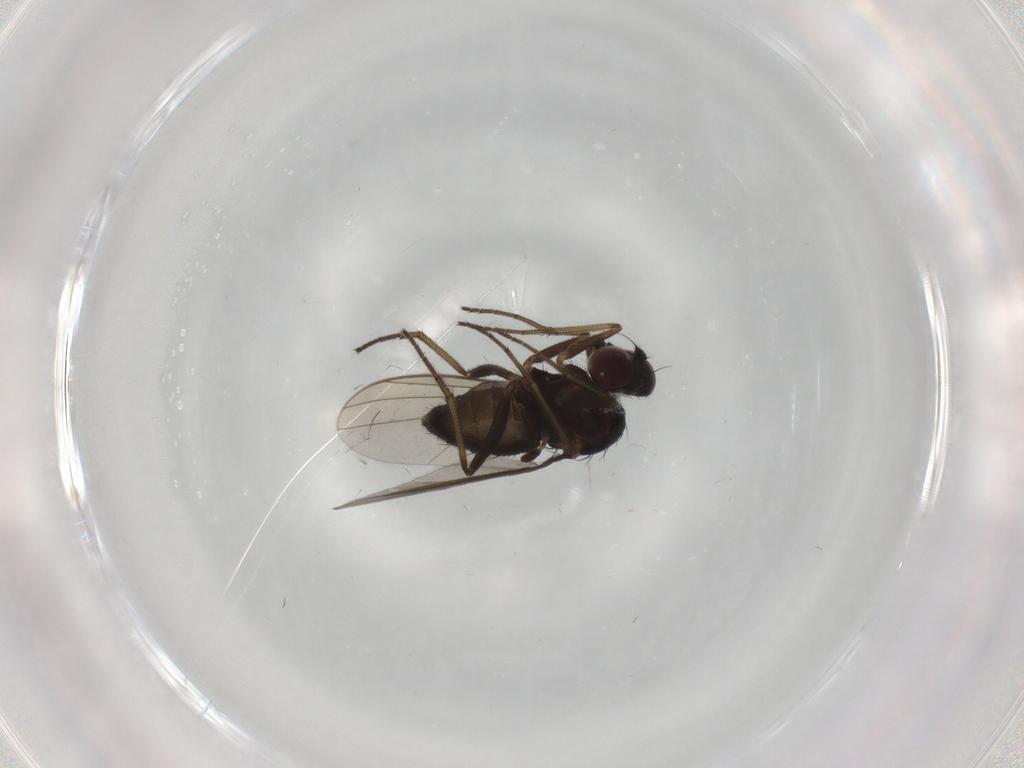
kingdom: Animalia
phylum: Arthropoda
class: Insecta
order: Diptera
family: Dolichopodidae
